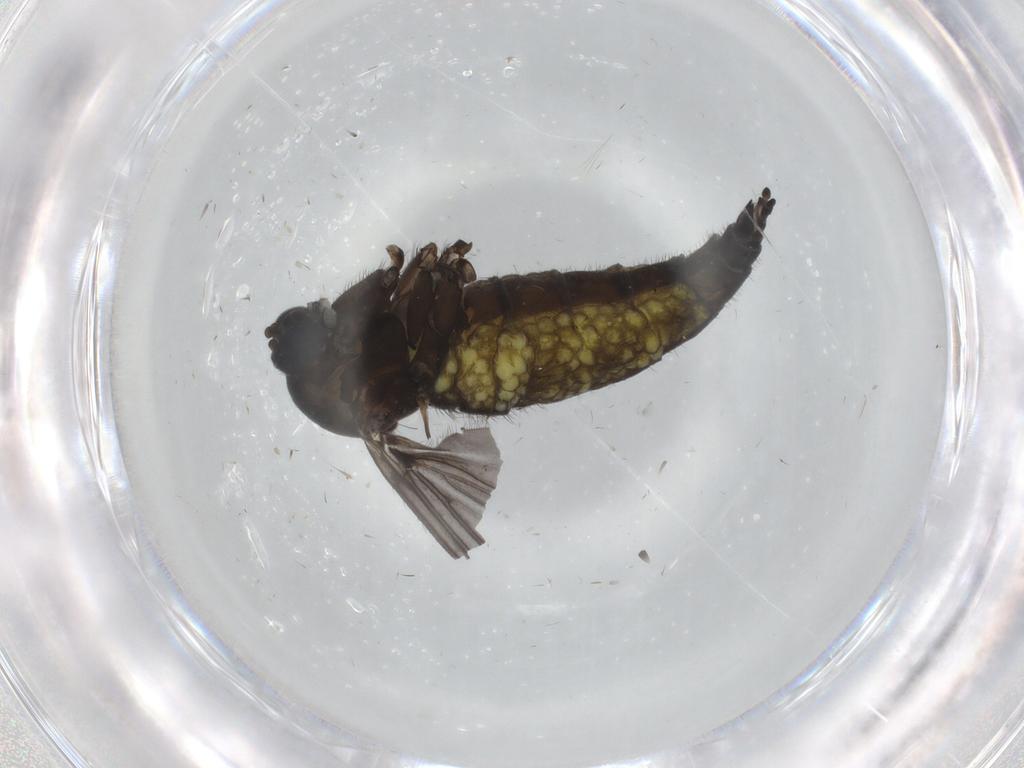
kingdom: Animalia
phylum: Arthropoda
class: Insecta
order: Diptera
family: Sciaridae
